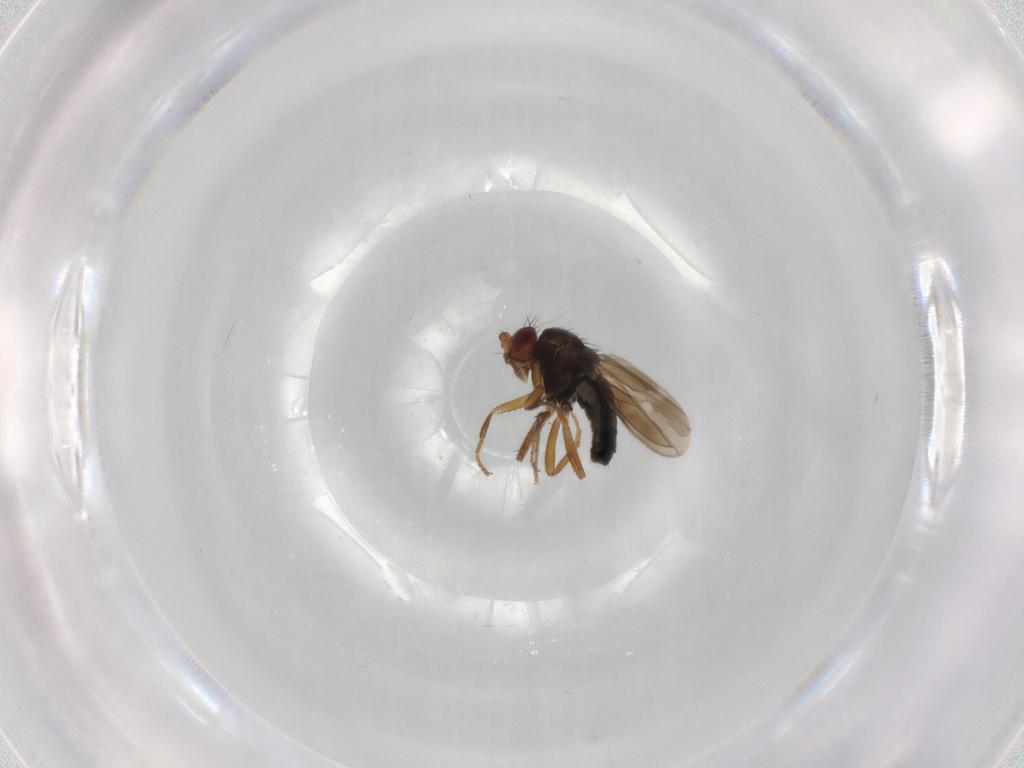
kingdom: Animalia
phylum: Arthropoda
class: Insecta
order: Diptera
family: Sphaeroceridae
